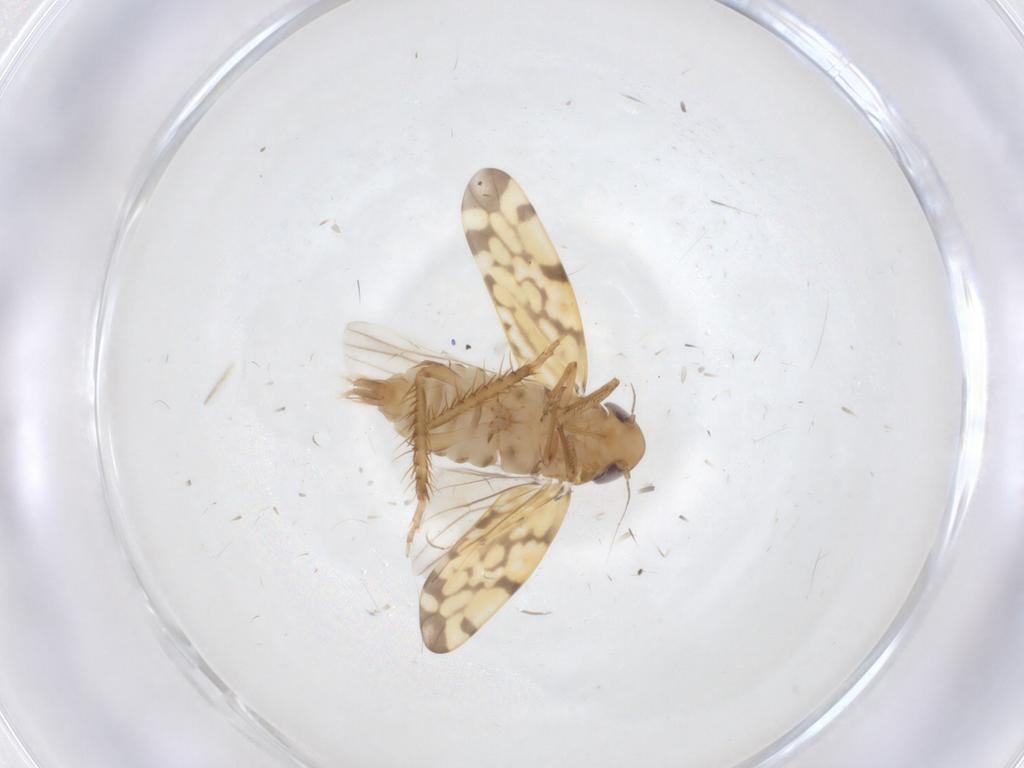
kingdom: Animalia
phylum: Arthropoda
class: Insecta
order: Hemiptera
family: Cicadellidae
